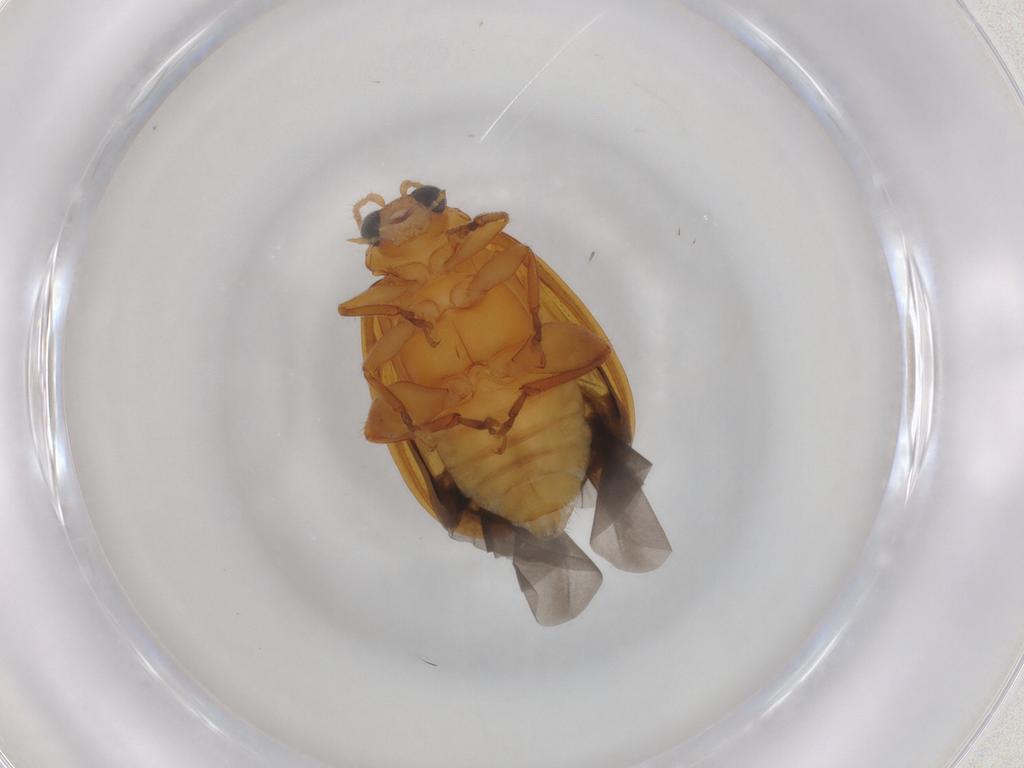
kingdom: Animalia
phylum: Arthropoda
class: Insecta
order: Coleoptera
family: Chrysomelidae
